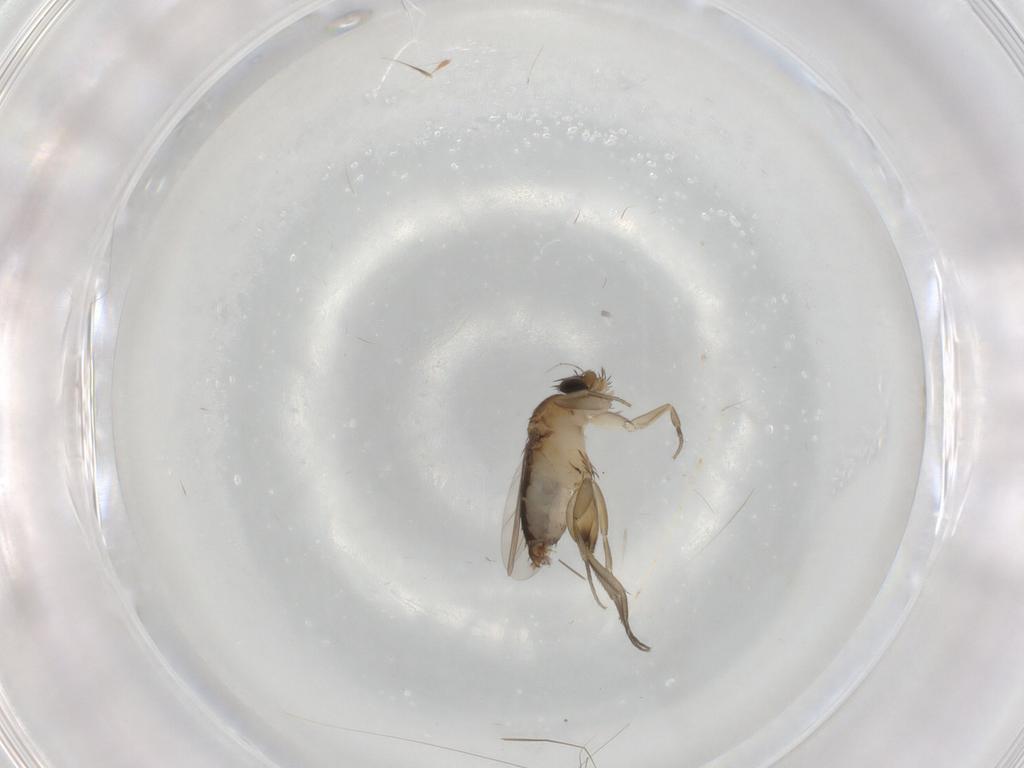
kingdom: Animalia
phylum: Arthropoda
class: Insecta
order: Diptera
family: Phoridae
